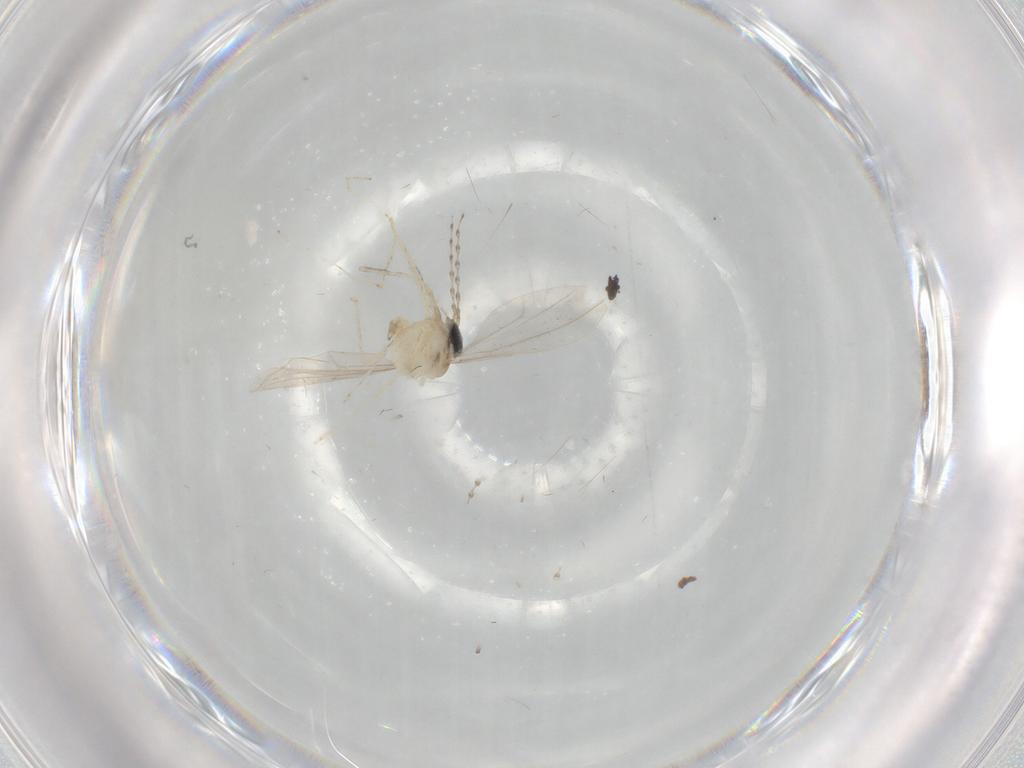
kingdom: Animalia
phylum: Arthropoda
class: Insecta
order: Diptera
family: Cecidomyiidae
